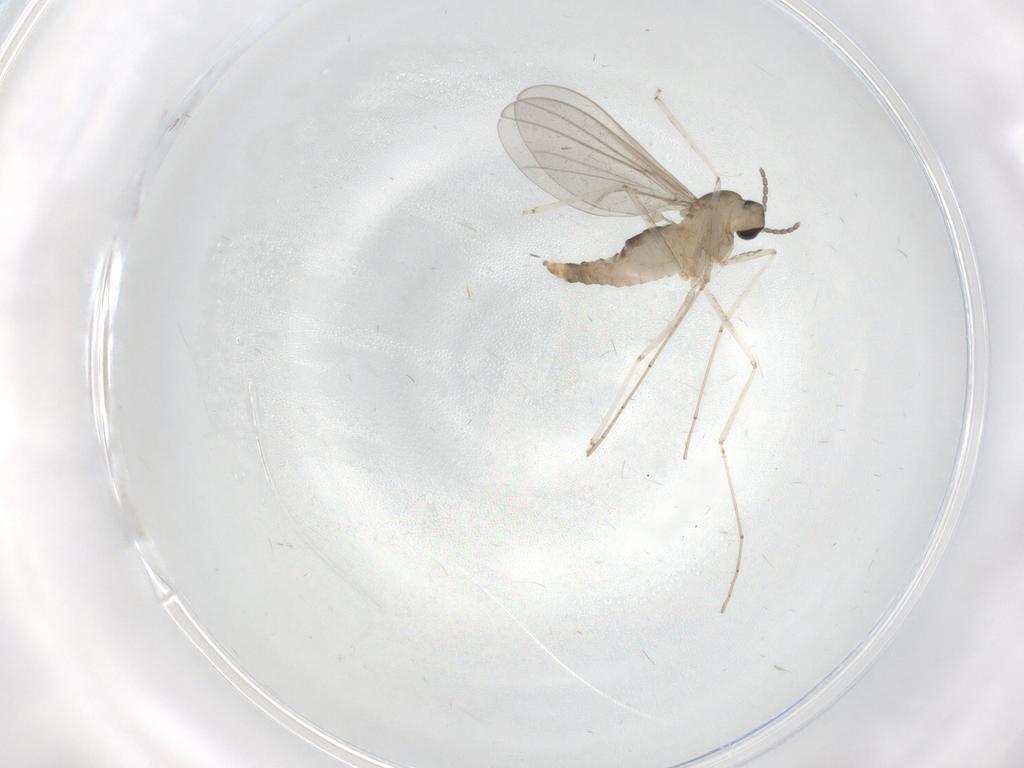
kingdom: Animalia
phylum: Arthropoda
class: Insecta
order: Diptera
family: Cecidomyiidae
